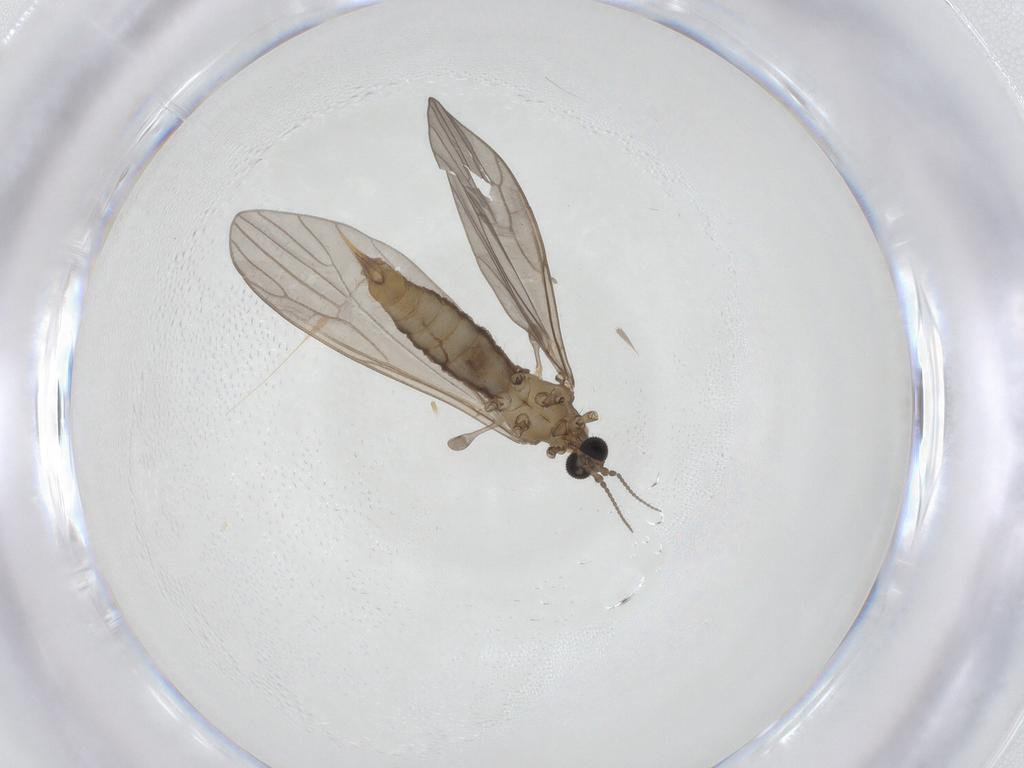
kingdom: Animalia
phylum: Arthropoda
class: Insecta
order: Diptera
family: Limoniidae
